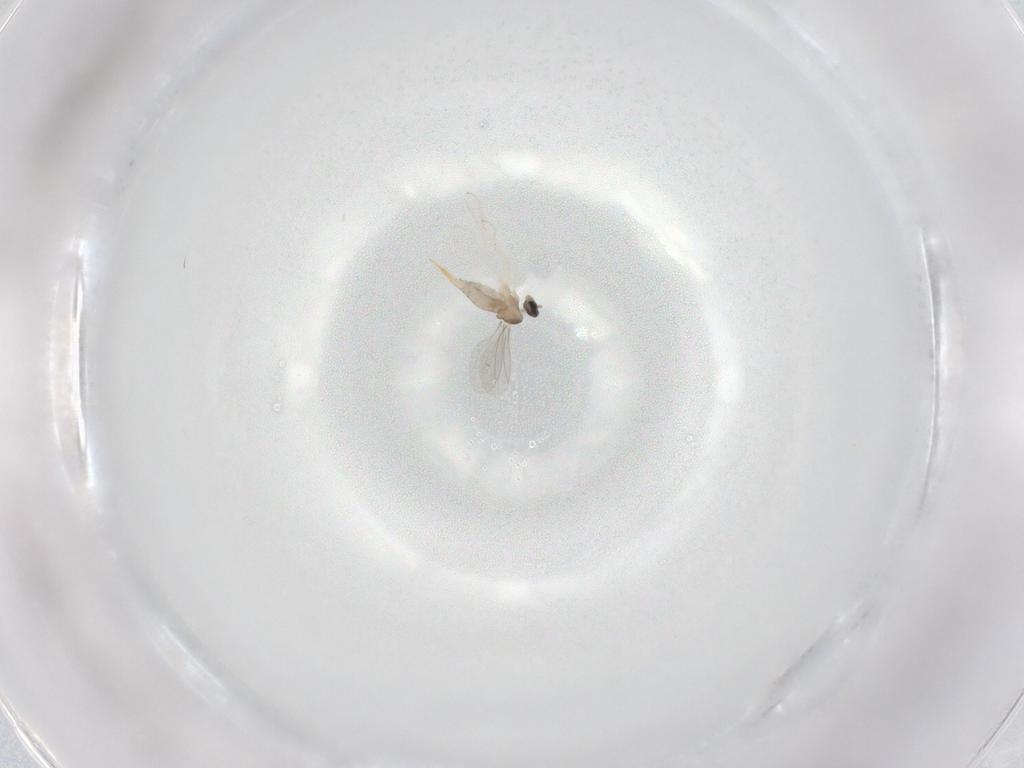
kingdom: Animalia
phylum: Arthropoda
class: Insecta
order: Diptera
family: Cecidomyiidae
